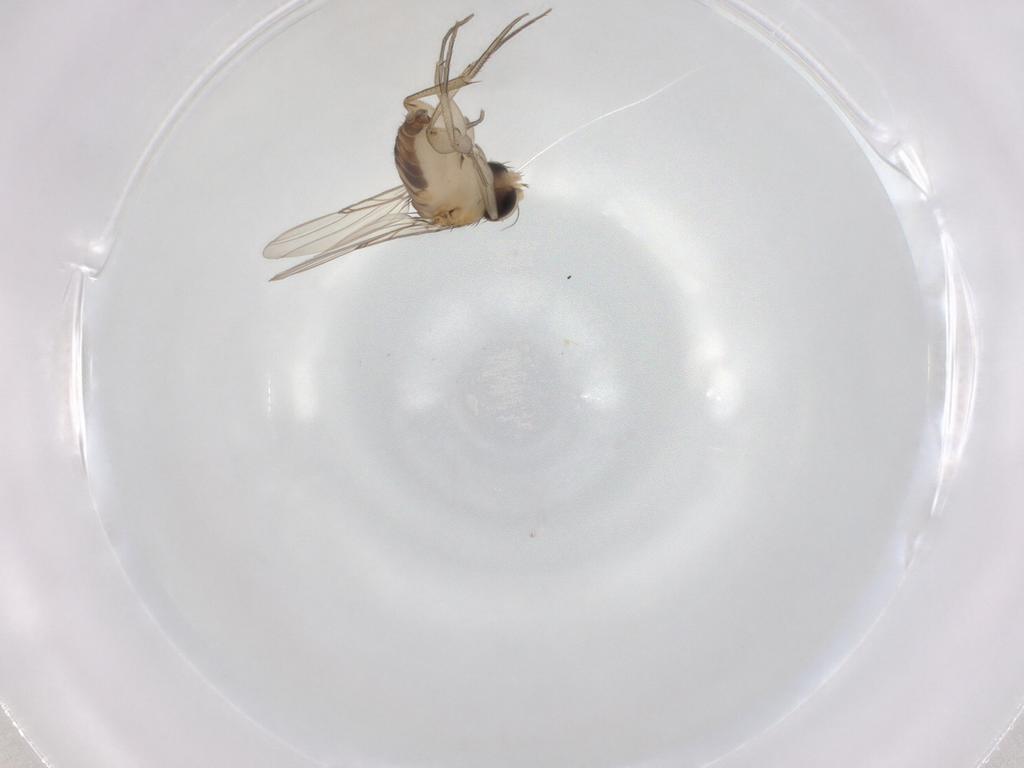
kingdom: Animalia
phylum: Arthropoda
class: Insecta
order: Diptera
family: Phoridae
